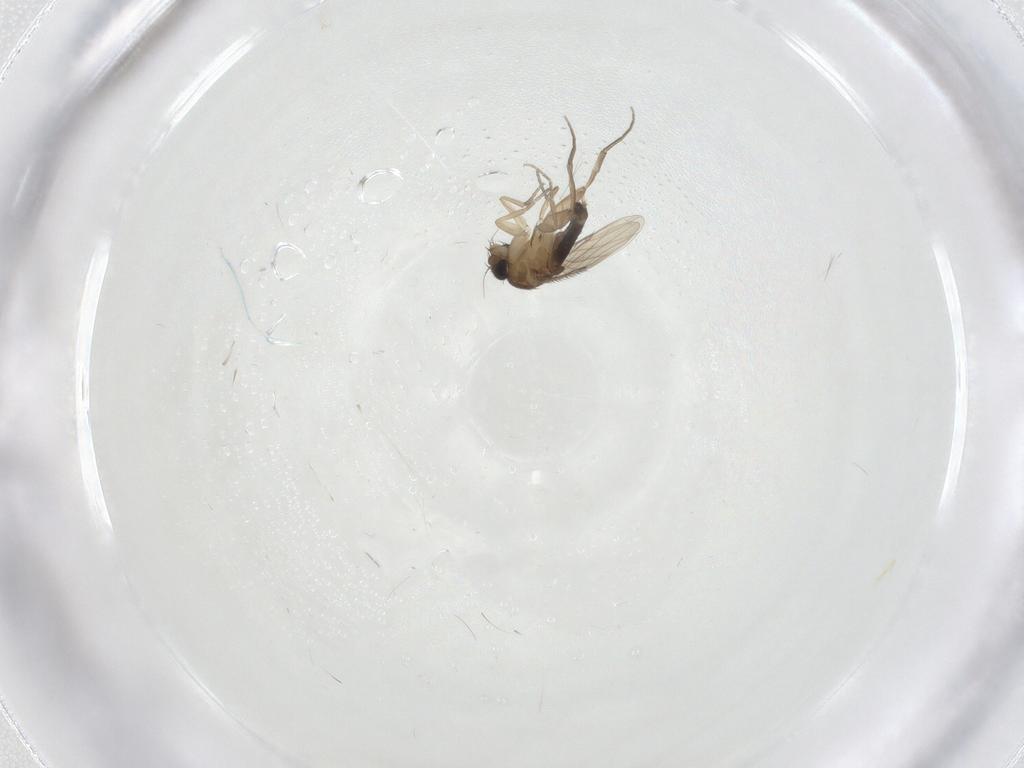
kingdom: Animalia
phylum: Arthropoda
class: Insecta
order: Diptera
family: Phoridae
